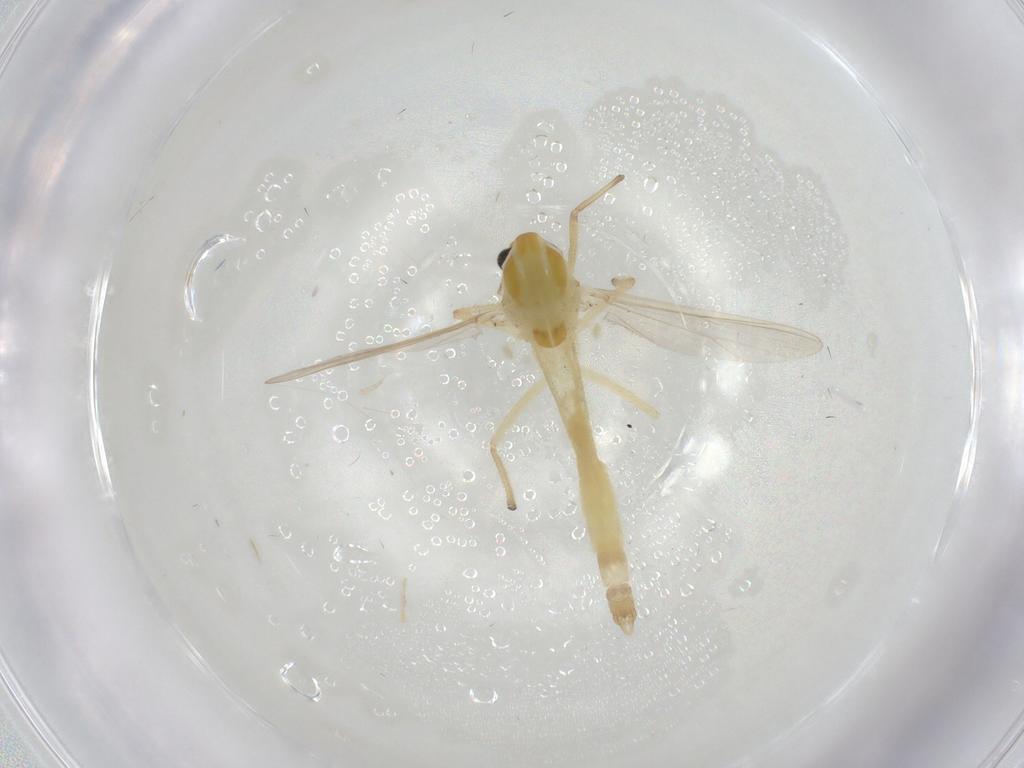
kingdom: Animalia
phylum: Arthropoda
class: Insecta
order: Diptera
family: Chironomidae
